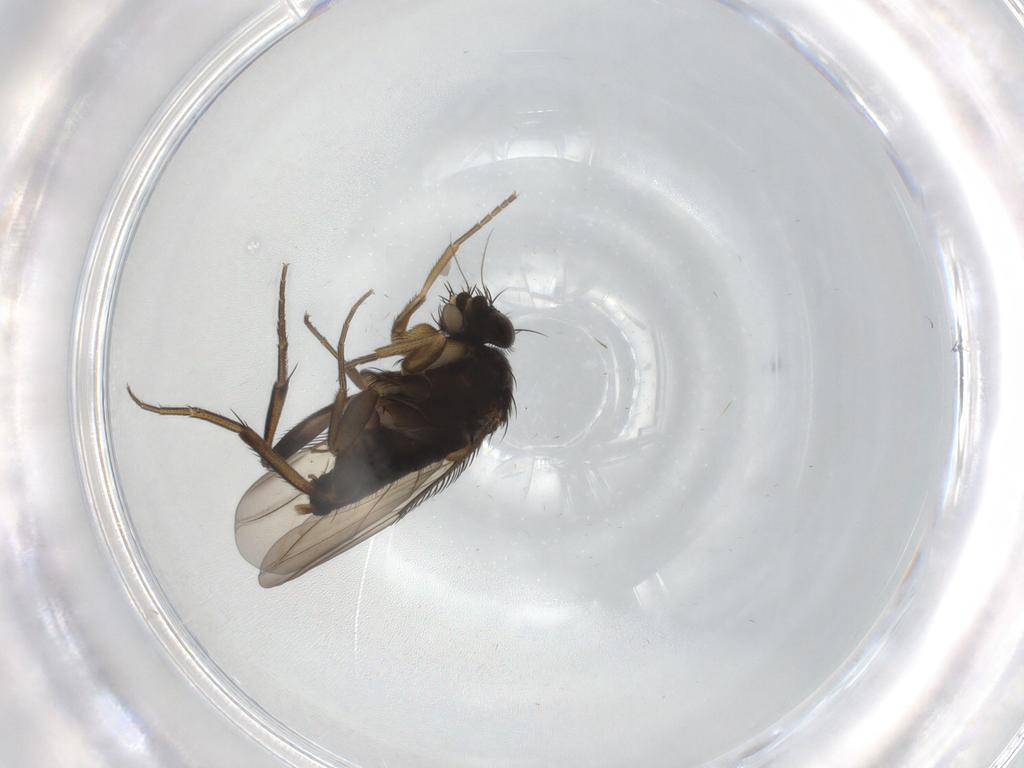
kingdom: Animalia
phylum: Arthropoda
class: Insecta
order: Diptera
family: Phoridae
